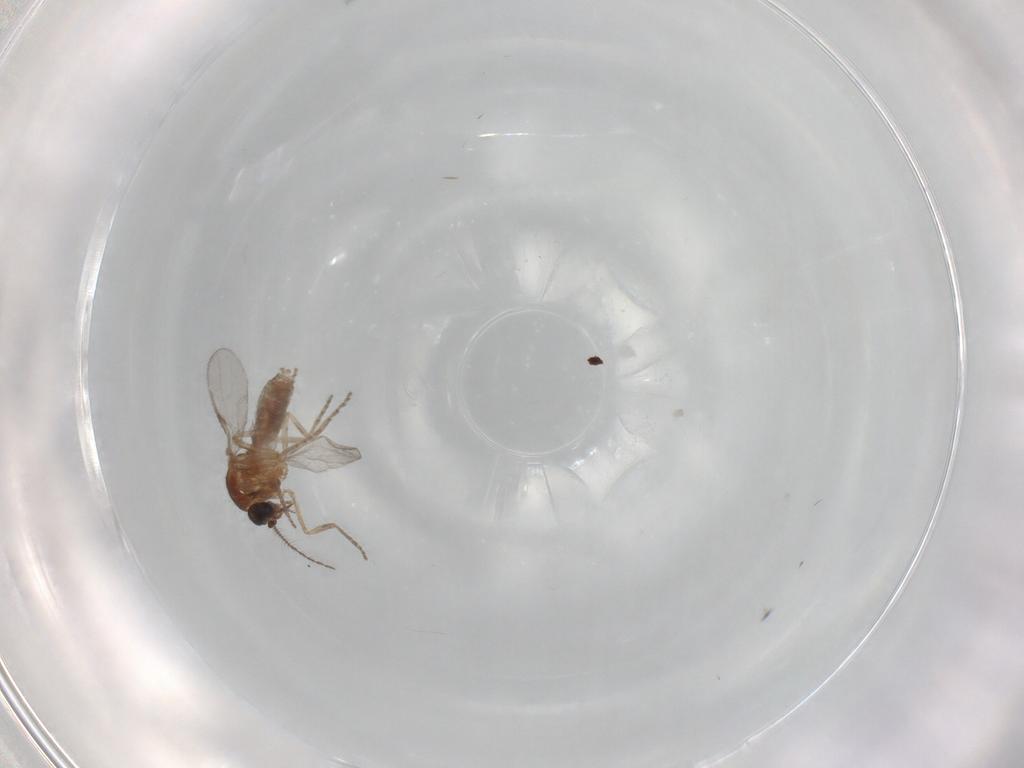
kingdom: Animalia
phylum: Arthropoda
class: Insecta
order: Diptera
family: Ceratopogonidae
